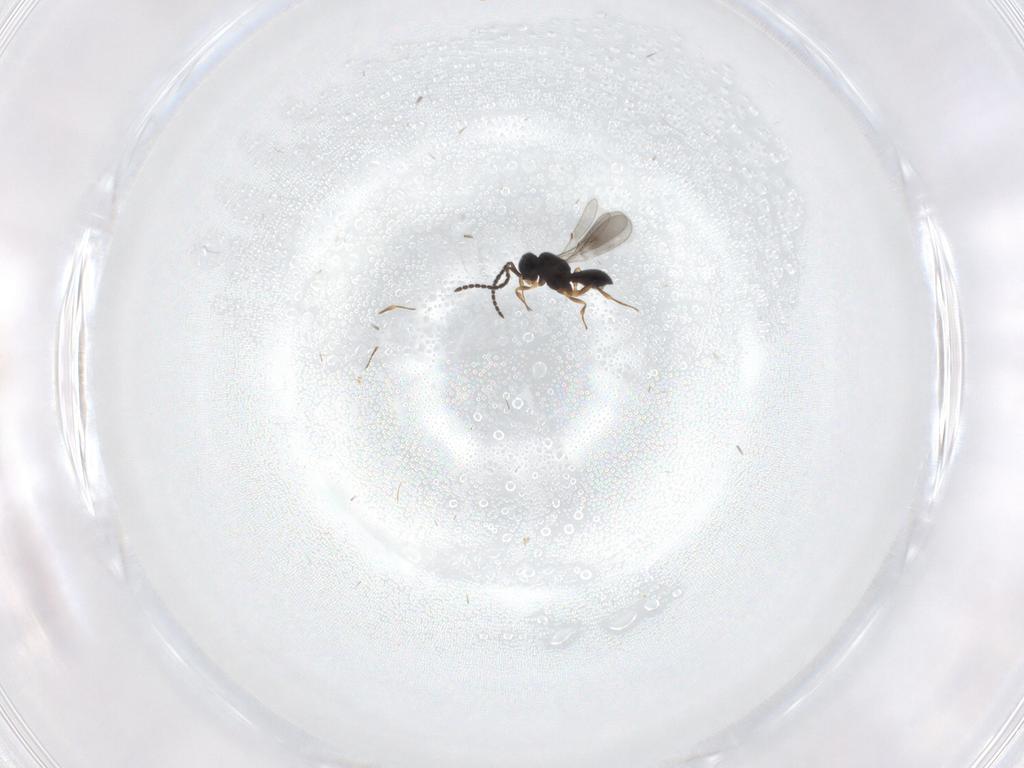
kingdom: Animalia
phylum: Arthropoda
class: Insecta
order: Hymenoptera
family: Scelionidae
